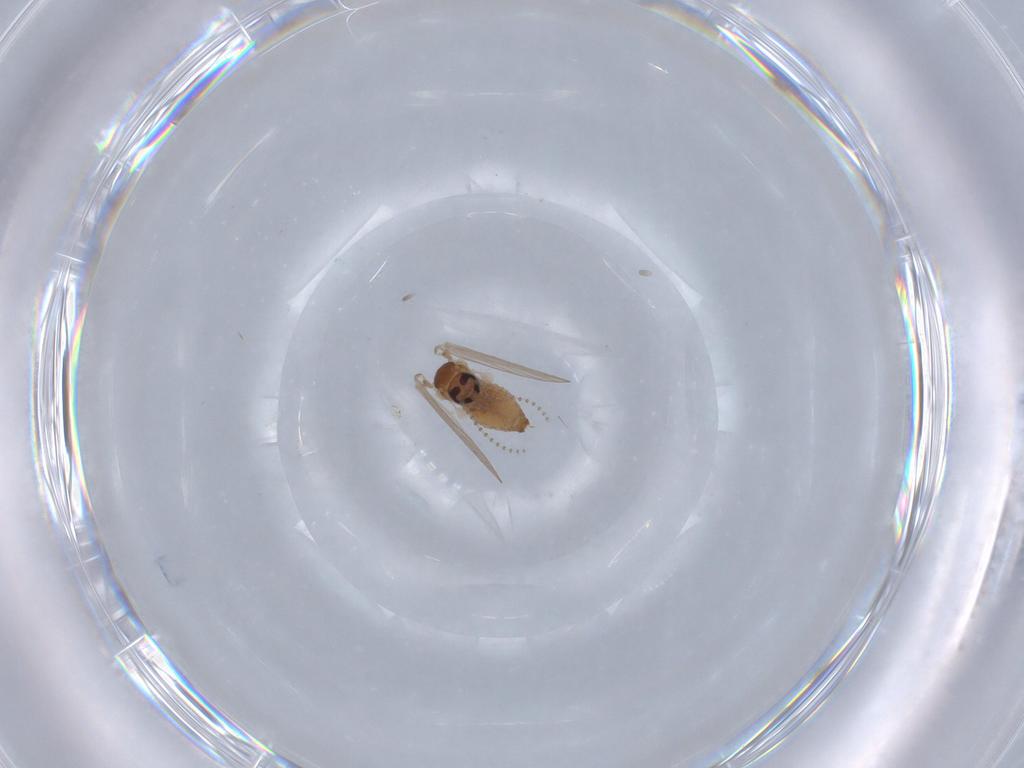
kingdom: Animalia
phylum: Arthropoda
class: Insecta
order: Diptera
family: Psychodidae
